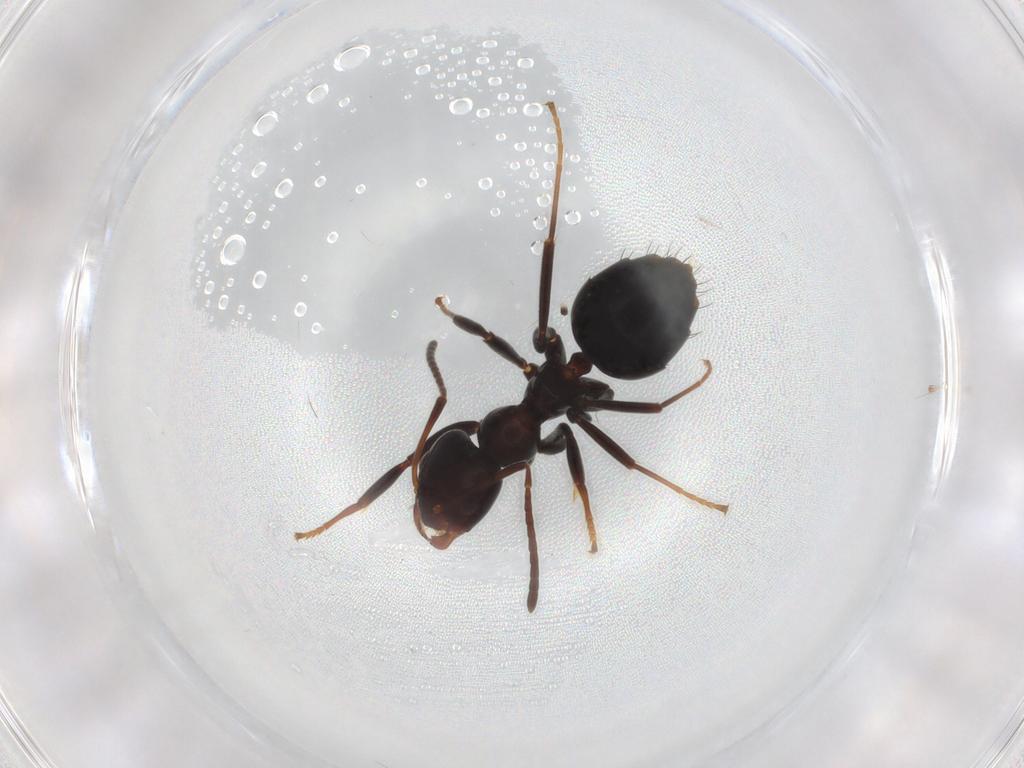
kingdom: Animalia
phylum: Arthropoda
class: Insecta
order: Hymenoptera
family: Formicidae
